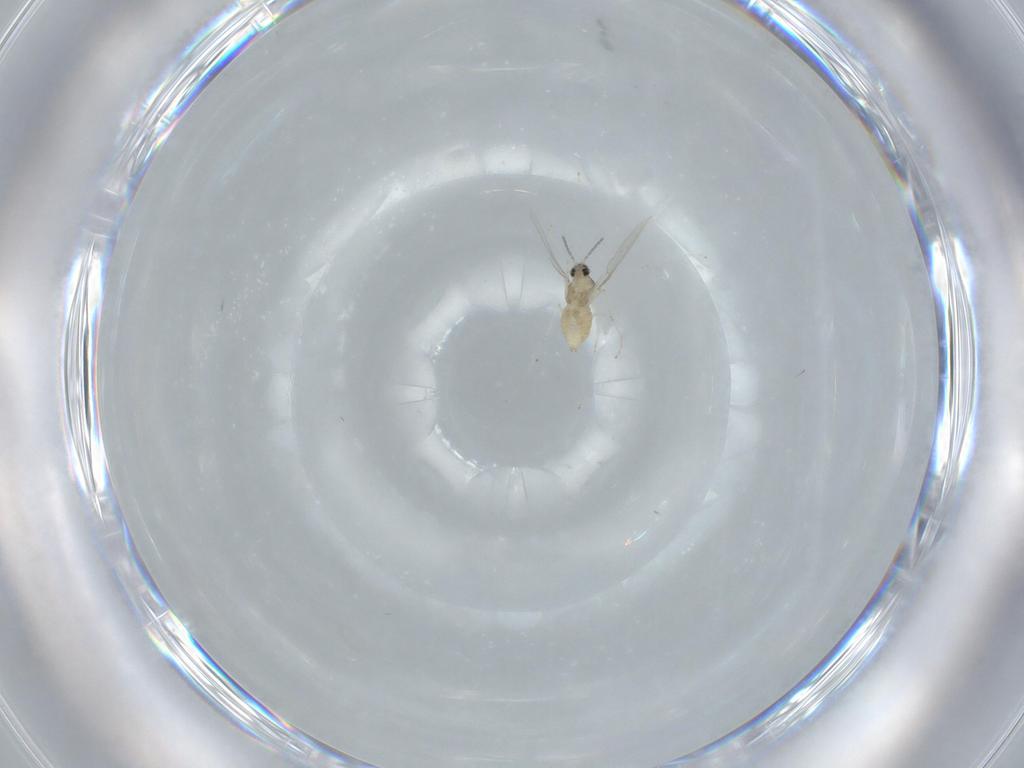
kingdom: Animalia
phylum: Arthropoda
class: Insecta
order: Diptera
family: Cecidomyiidae
